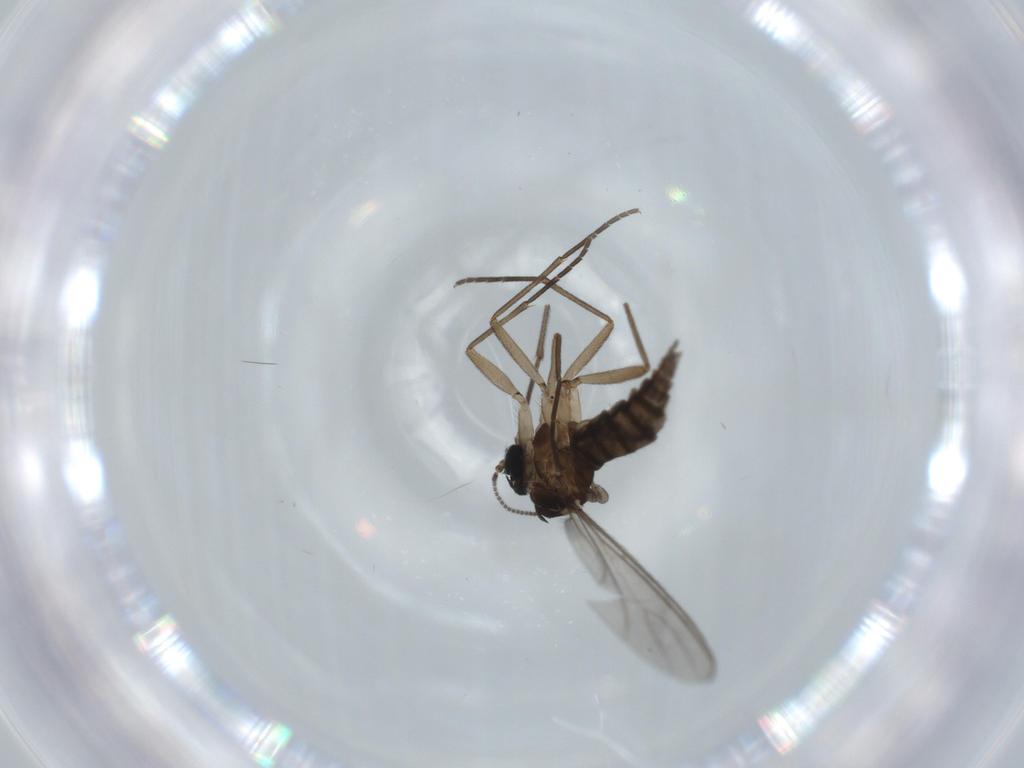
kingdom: Animalia
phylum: Arthropoda
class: Insecta
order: Diptera
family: Sciaridae
